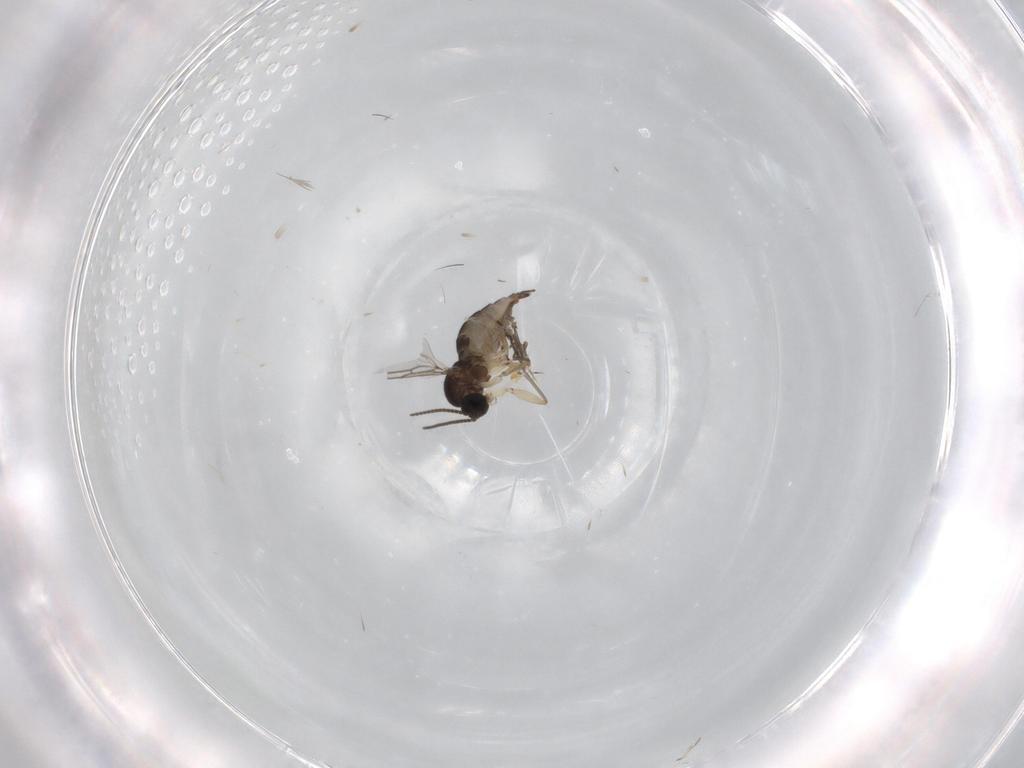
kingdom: Animalia
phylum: Arthropoda
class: Insecta
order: Diptera
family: Sciaridae
